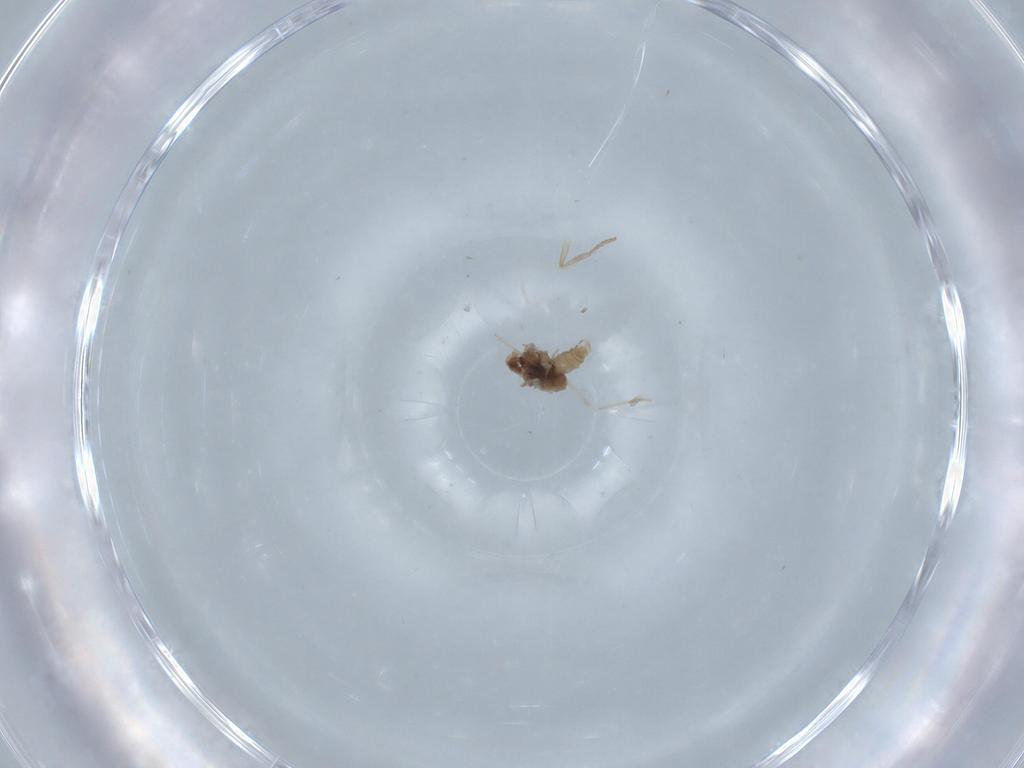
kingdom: Animalia
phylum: Arthropoda
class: Insecta
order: Diptera
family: Cecidomyiidae
